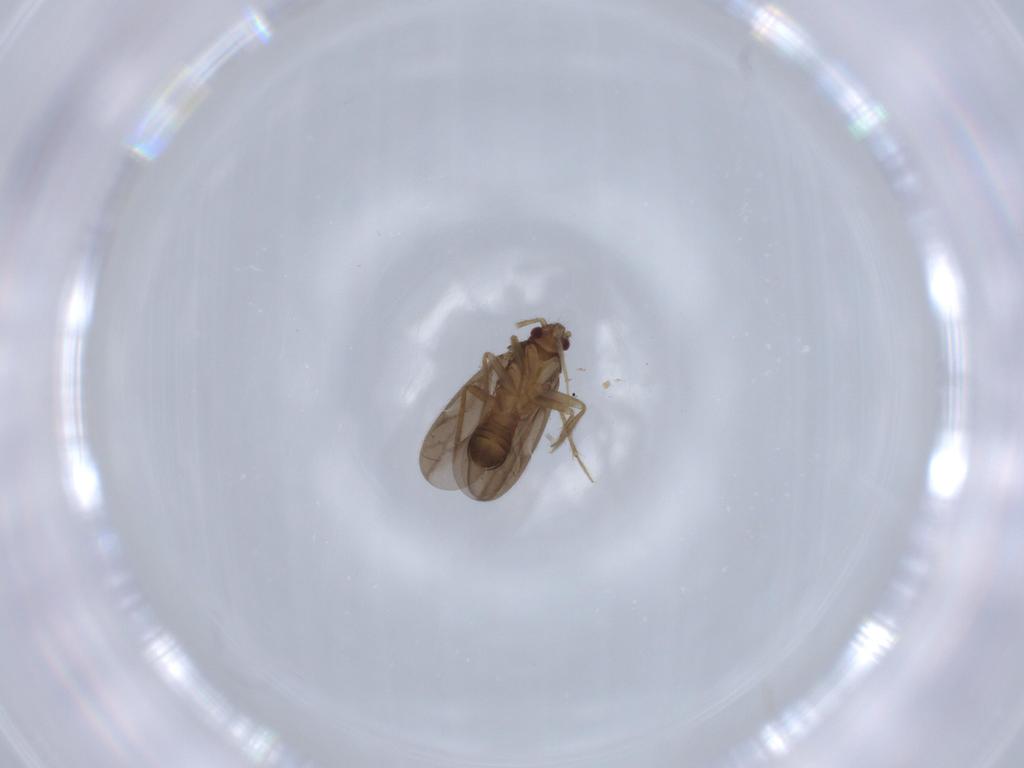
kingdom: Animalia
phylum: Arthropoda
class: Insecta
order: Hemiptera
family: Ceratocombidae
